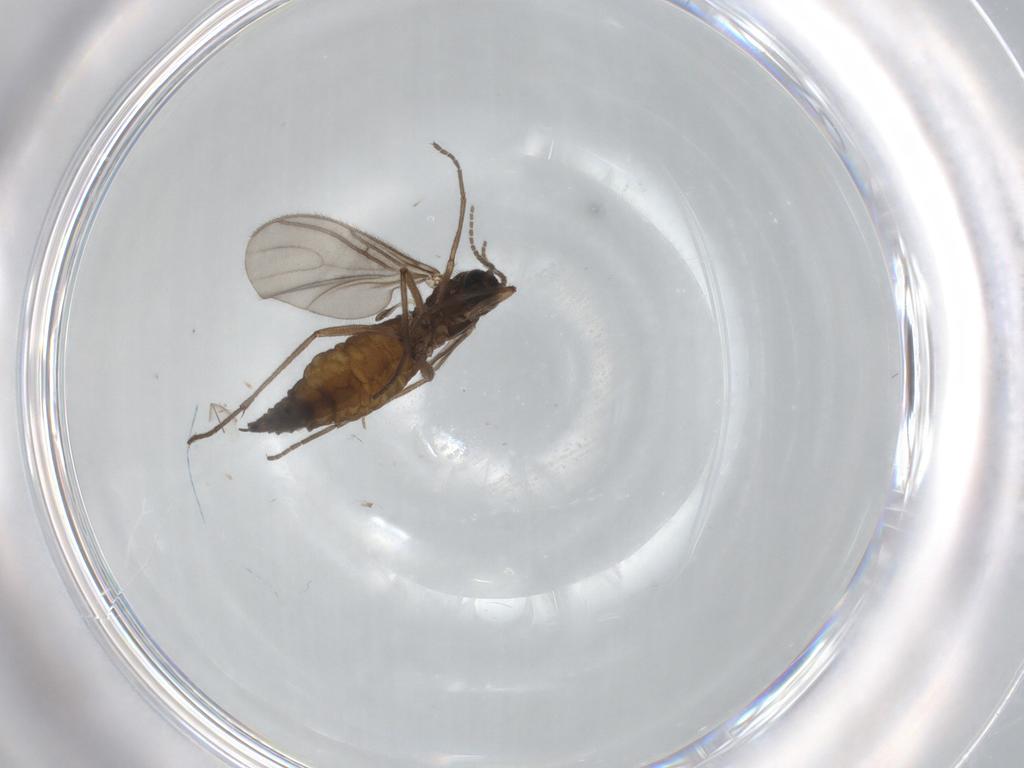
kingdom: Animalia
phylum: Arthropoda
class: Insecta
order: Diptera
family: Sciaridae
